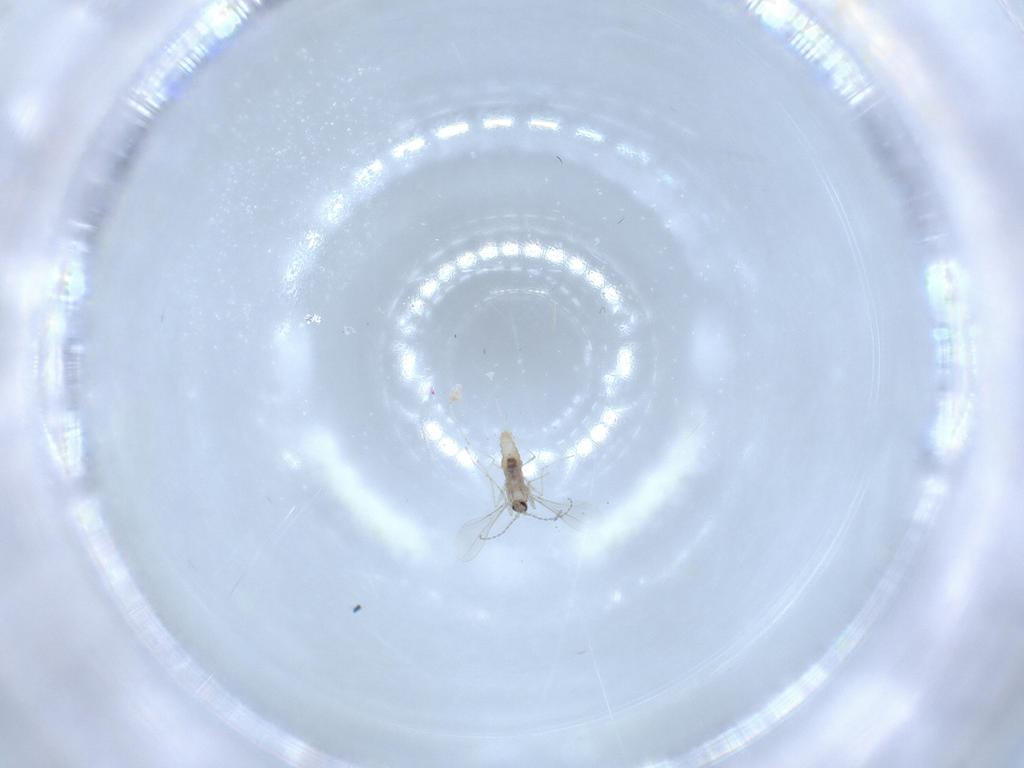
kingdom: Animalia
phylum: Arthropoda
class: Insecta
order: Diptera
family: Cecidomyiidae
